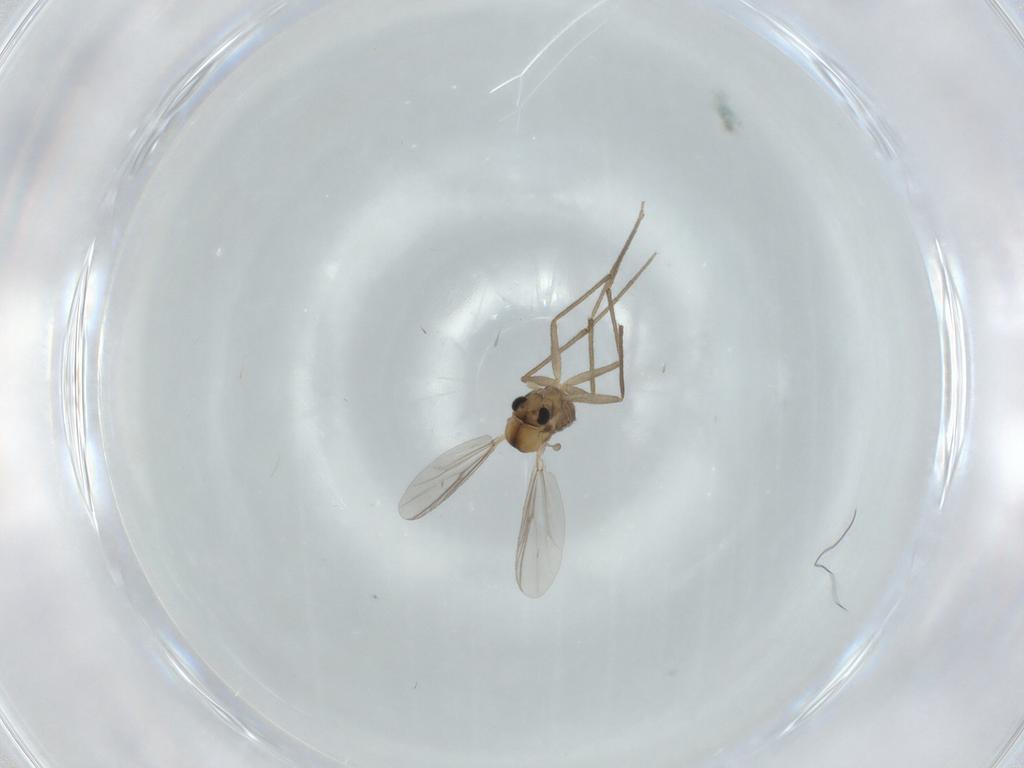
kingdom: Animalia
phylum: Arthropoda
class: Insecta
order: Diptera
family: Chironomidae
